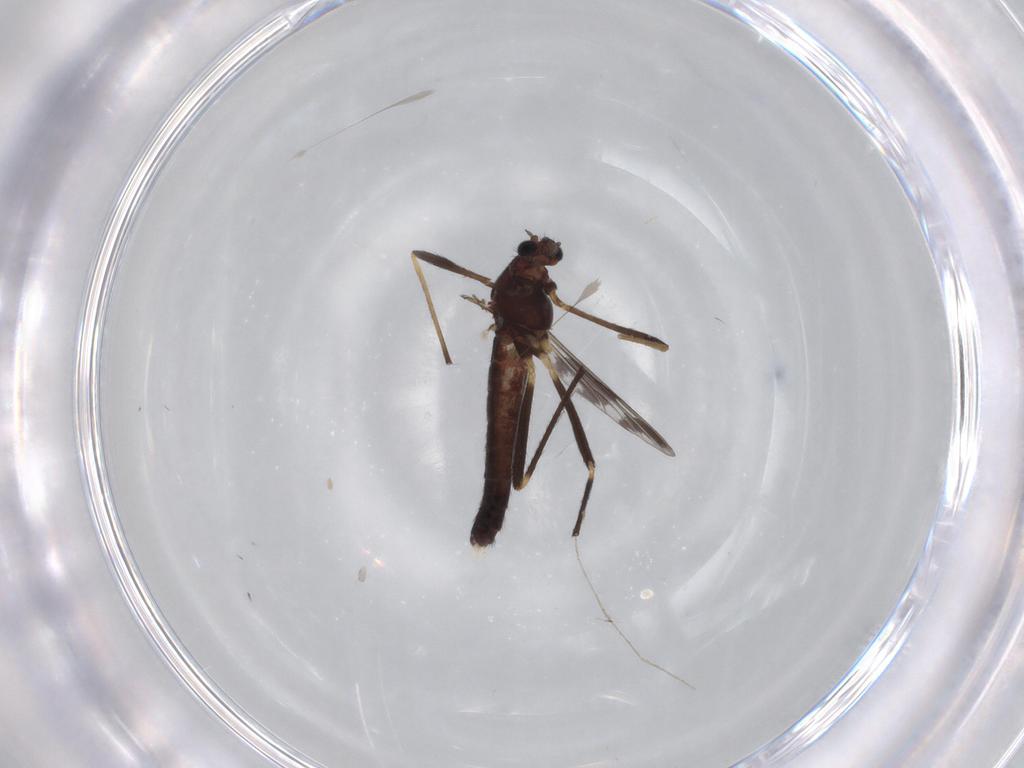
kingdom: Animalia
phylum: Arthropoda
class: Insecta
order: Diptera
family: Chironomidae
